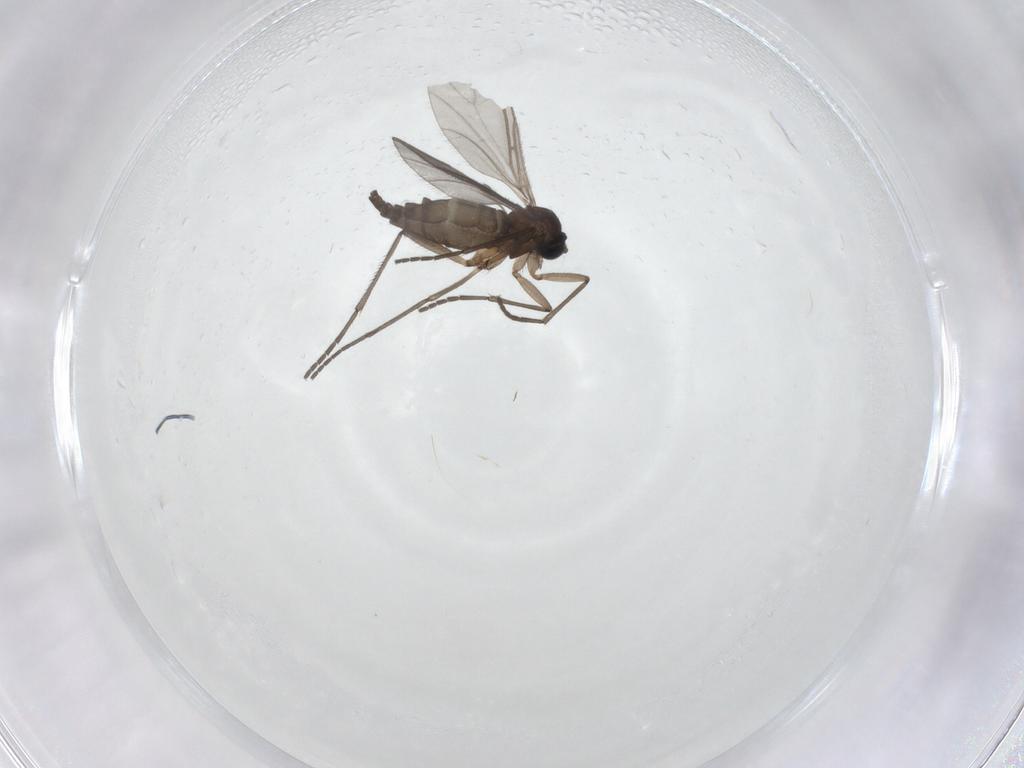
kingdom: Animalia
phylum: Arthropoda
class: Insecta
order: Diptera
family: Sciaridae
